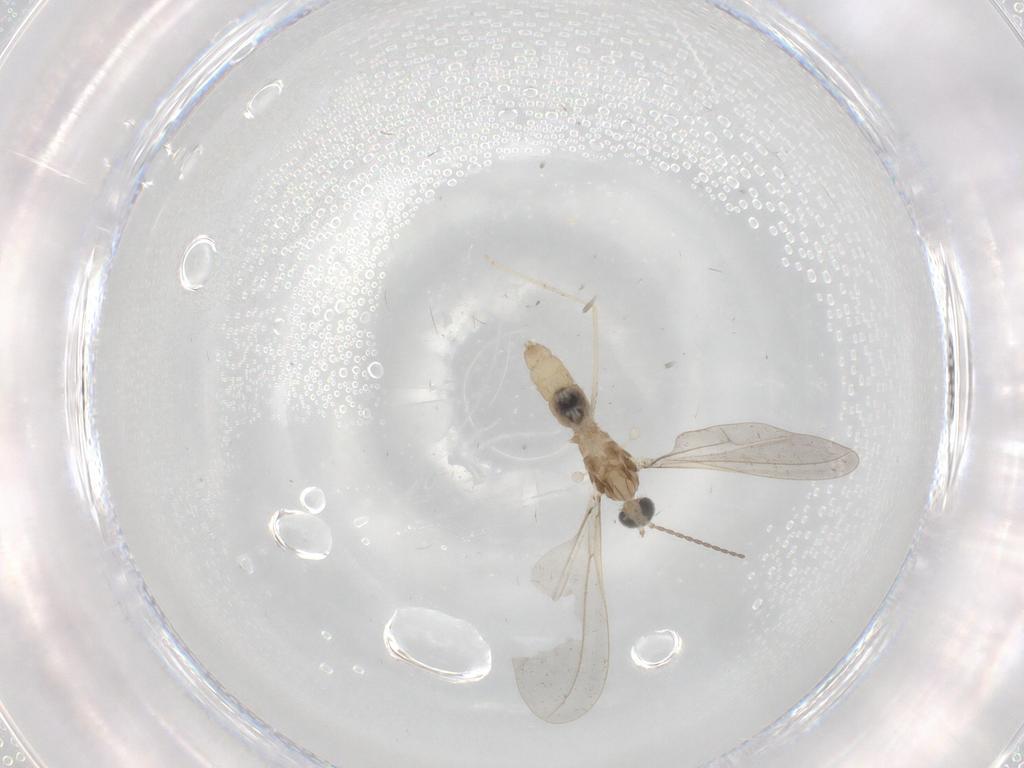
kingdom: Animalia
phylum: Arthropoda
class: Insecta
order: Diptera
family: Cecidomyiidae
